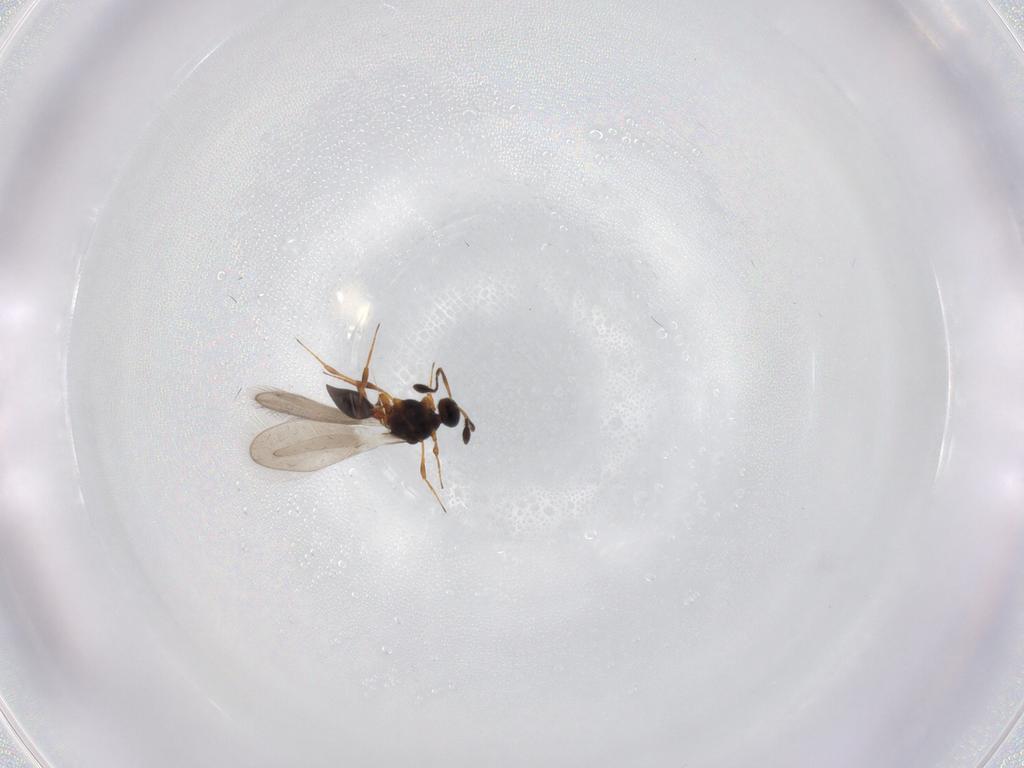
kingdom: Animalia
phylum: Arthropoda
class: Insecta
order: Hymenoptera
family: Platygastridae
